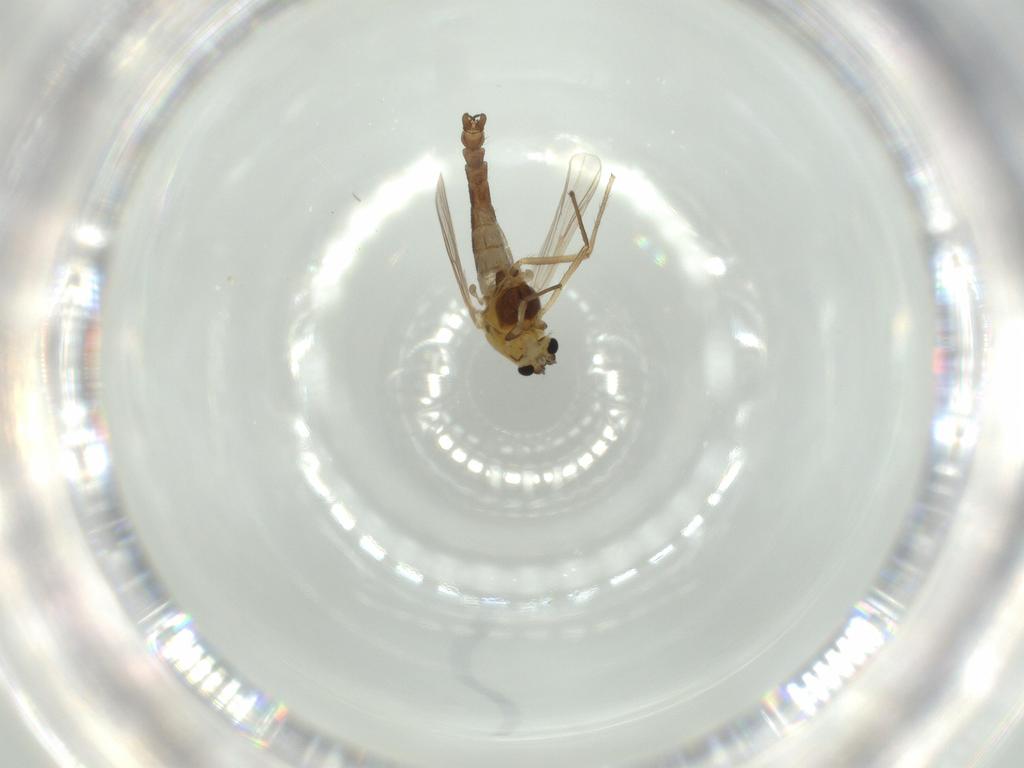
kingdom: Animalia
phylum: Arthropoda
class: Insecta
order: Diptera
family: Chironomidae
